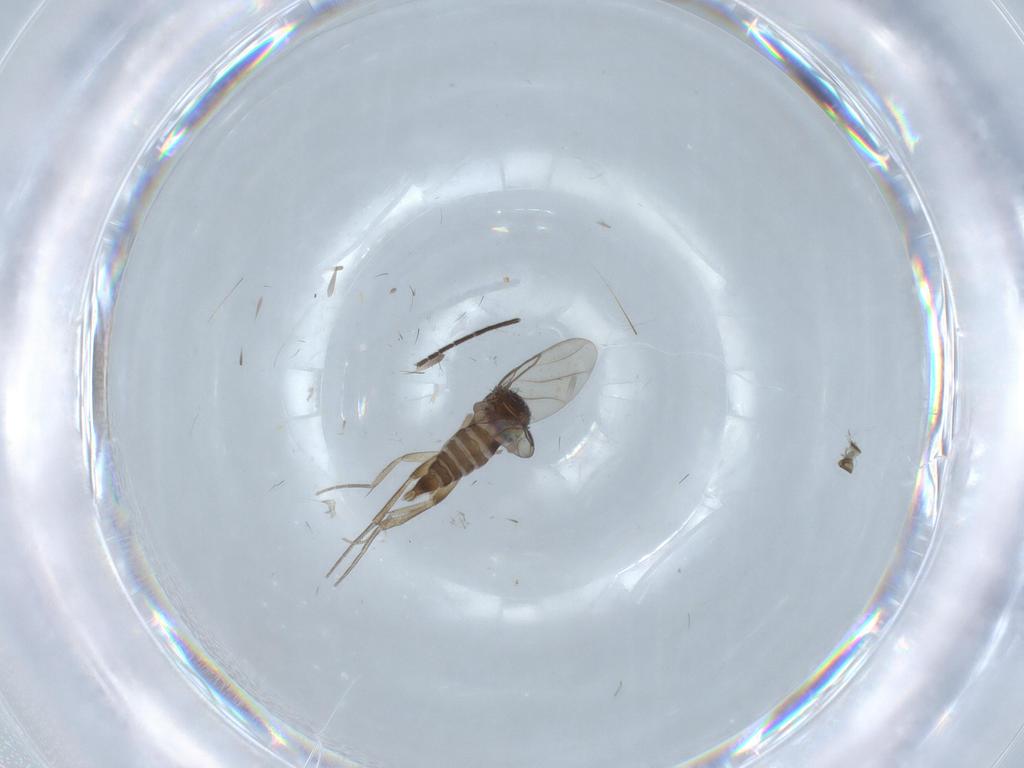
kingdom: Animalia
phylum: Arthropoda
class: Insecta
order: Diptera
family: Phoridae
